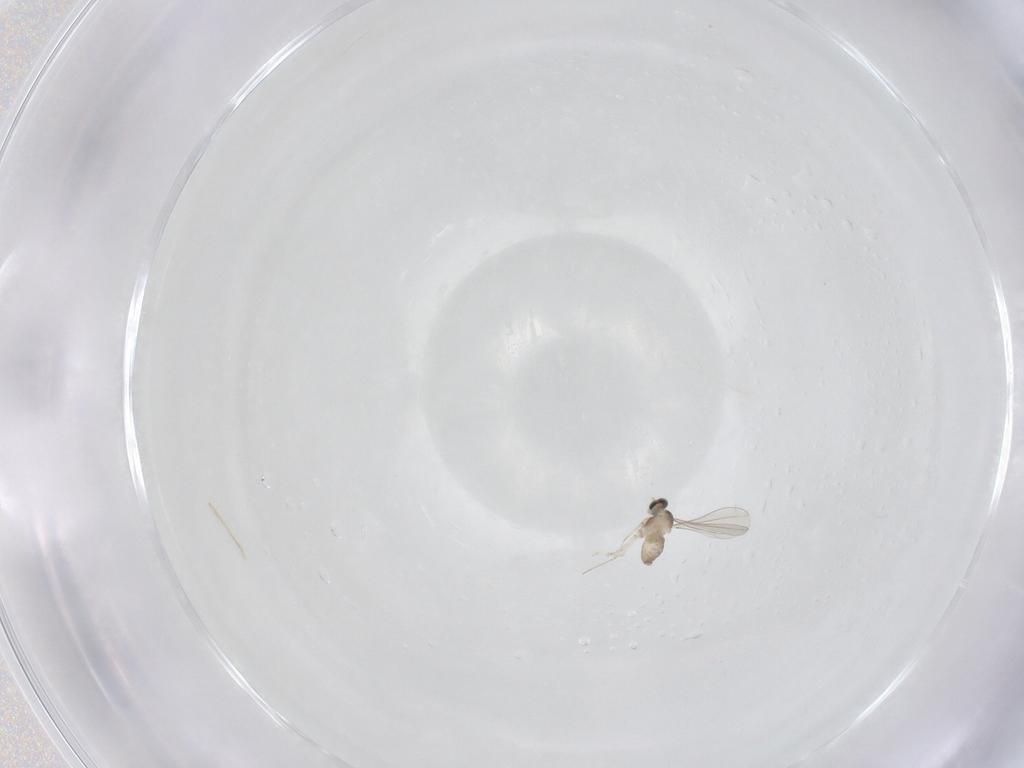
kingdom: Animalia
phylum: Arthropoda
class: Insecta
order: Diptera
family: Cecidomyiidae
